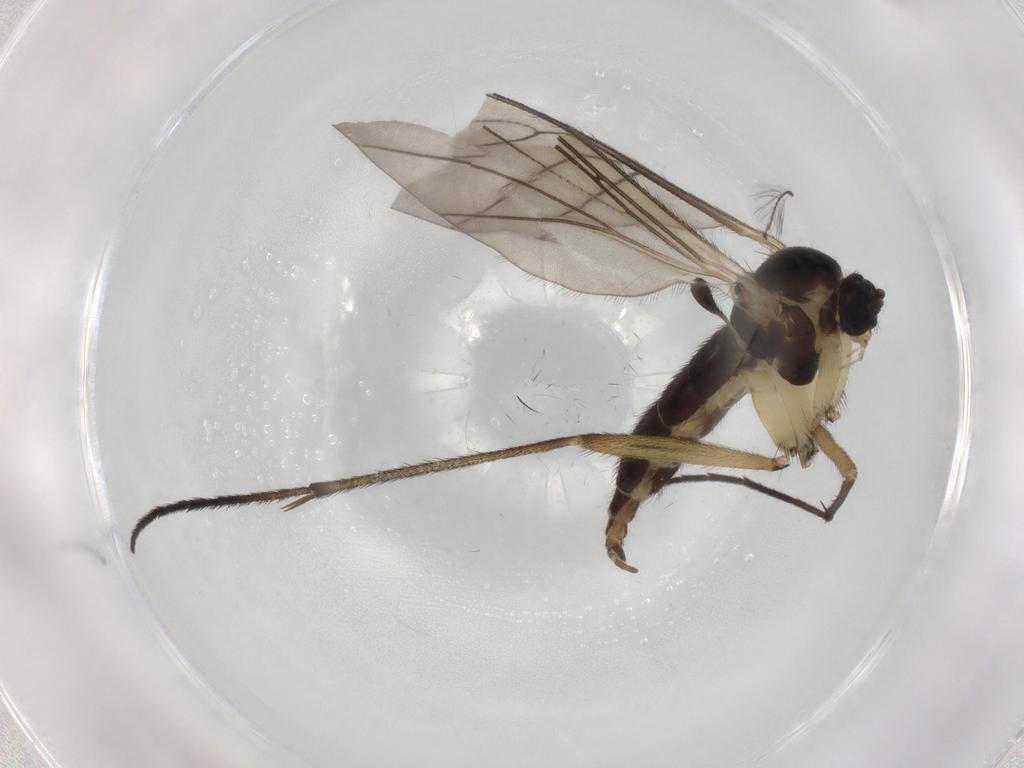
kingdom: Animalia
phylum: Arthropoda
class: Insecta
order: Diptera
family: Sciaridae
